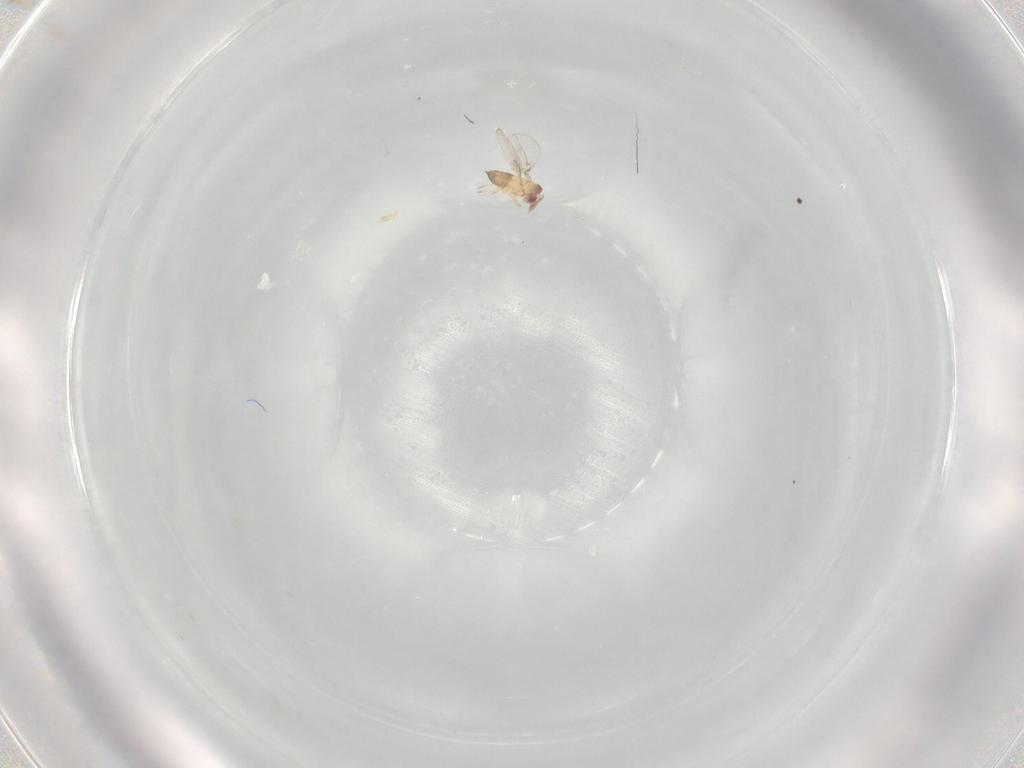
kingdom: Animalia
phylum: Arthropoda
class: Insecta
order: Hymenoptera
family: Trichogrammatidae
